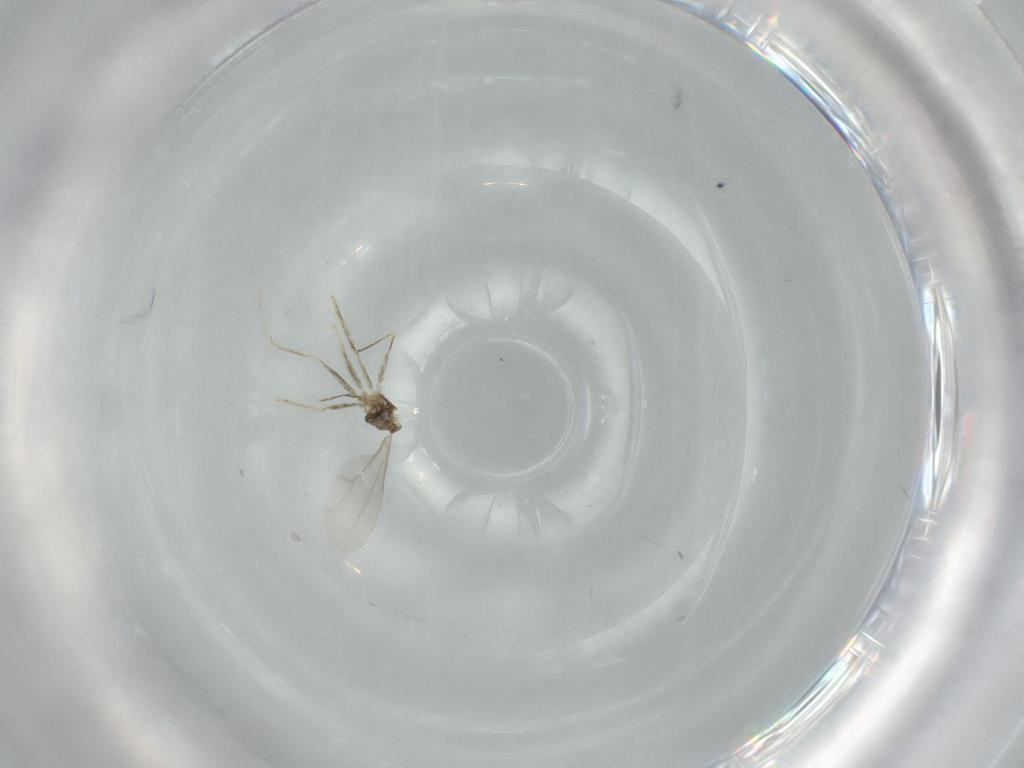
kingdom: Animalia
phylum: Arthropoda
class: Insecta
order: Diptera
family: Cecidomyiidae
